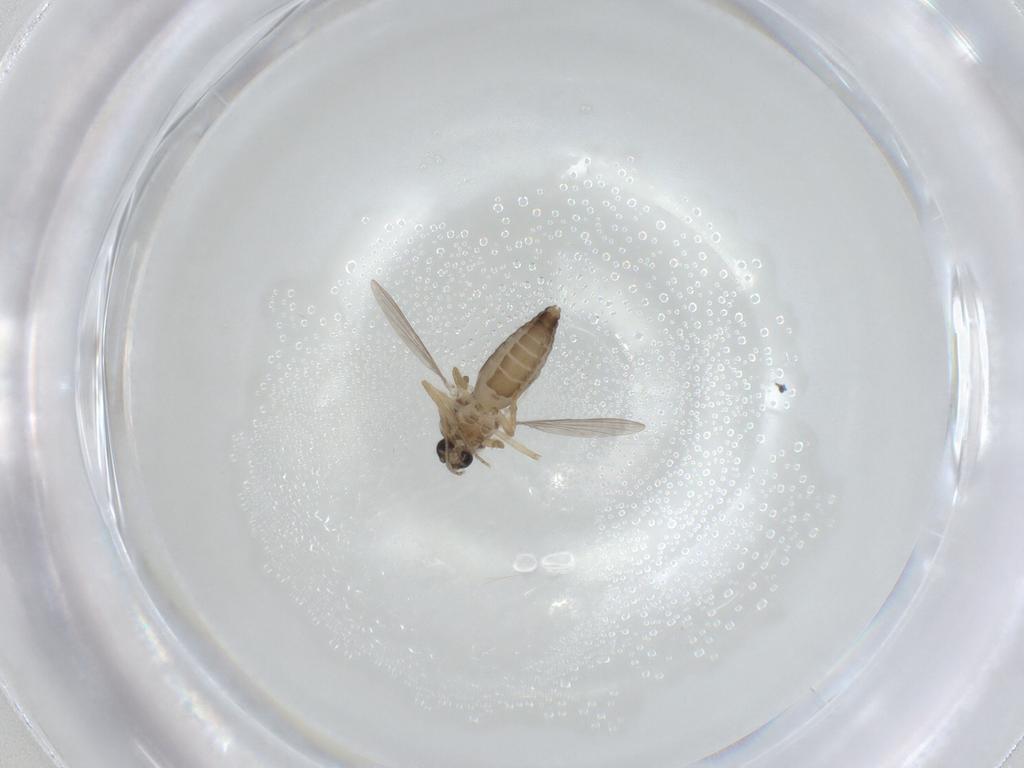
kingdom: Animalia
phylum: Arthropoda
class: Insecta
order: Diptera
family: Ceratopogonidae
